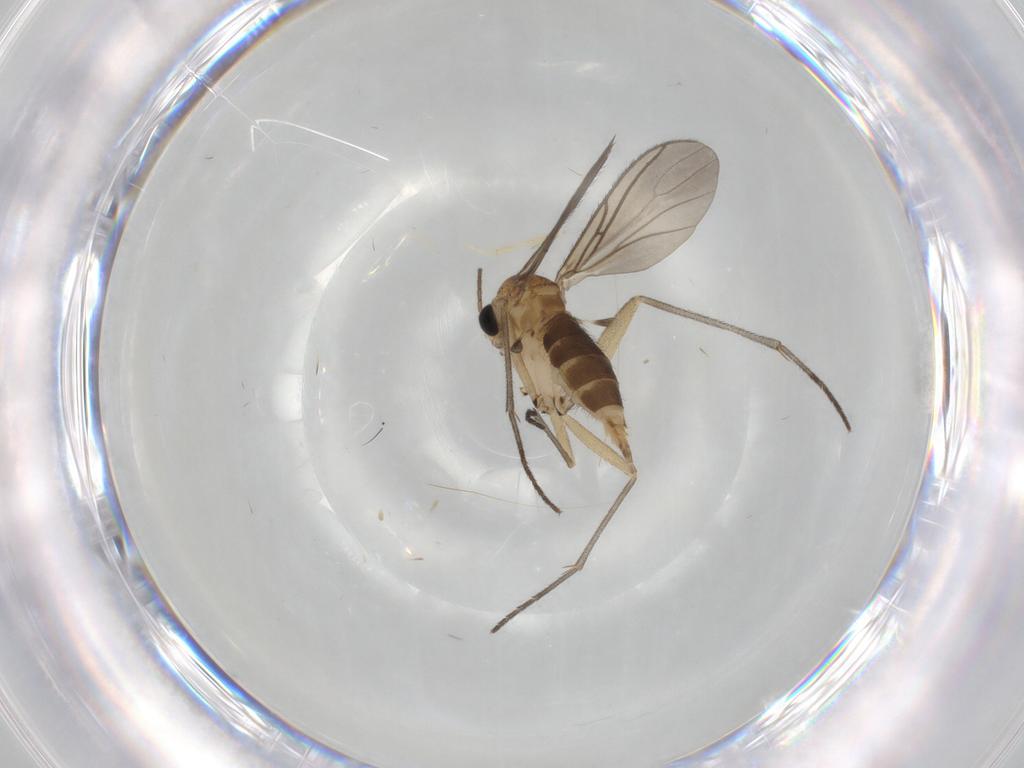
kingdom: Animalia
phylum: Arthropoda
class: Insecta
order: Diptera
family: Sciaridae
